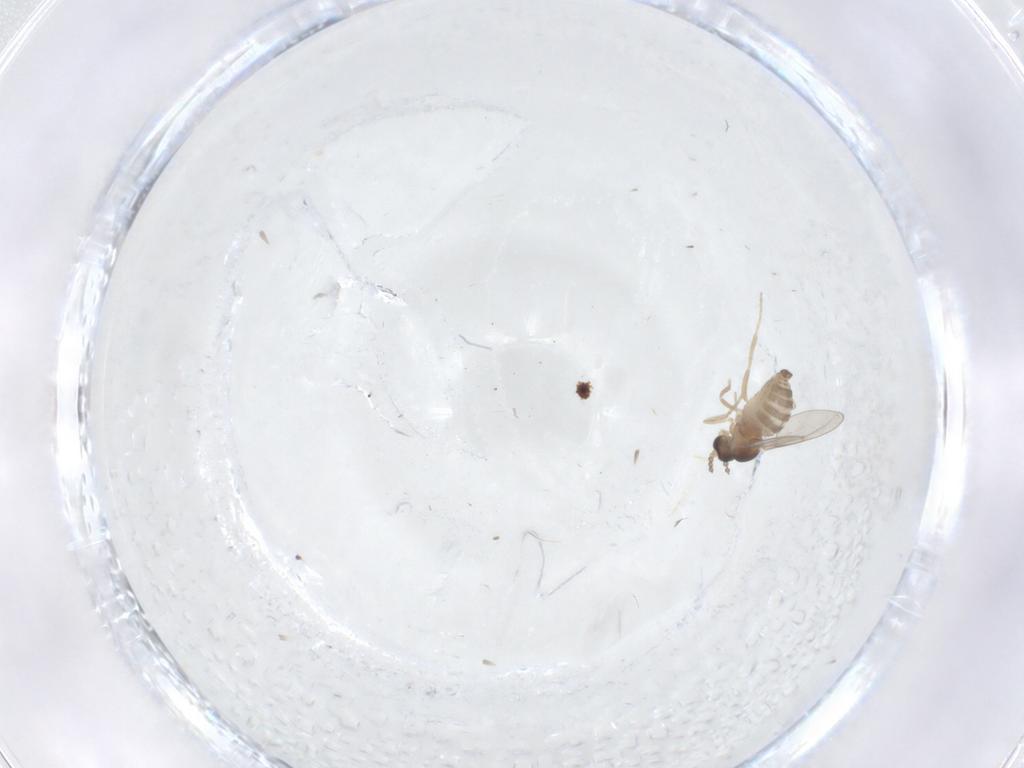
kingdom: Animalia
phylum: Arthropoda
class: Insecta
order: Diptera
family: Cecidomyiidae
